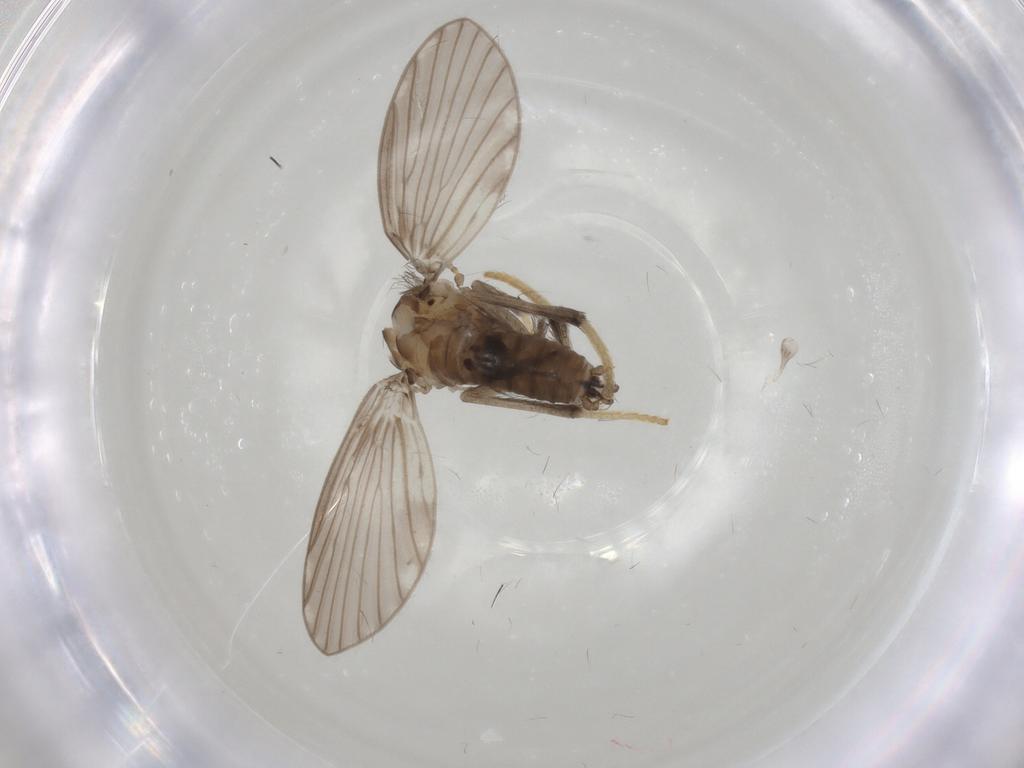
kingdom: Animalia
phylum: Arthropoda
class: Insecta
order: Diptera
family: Psychodidae
